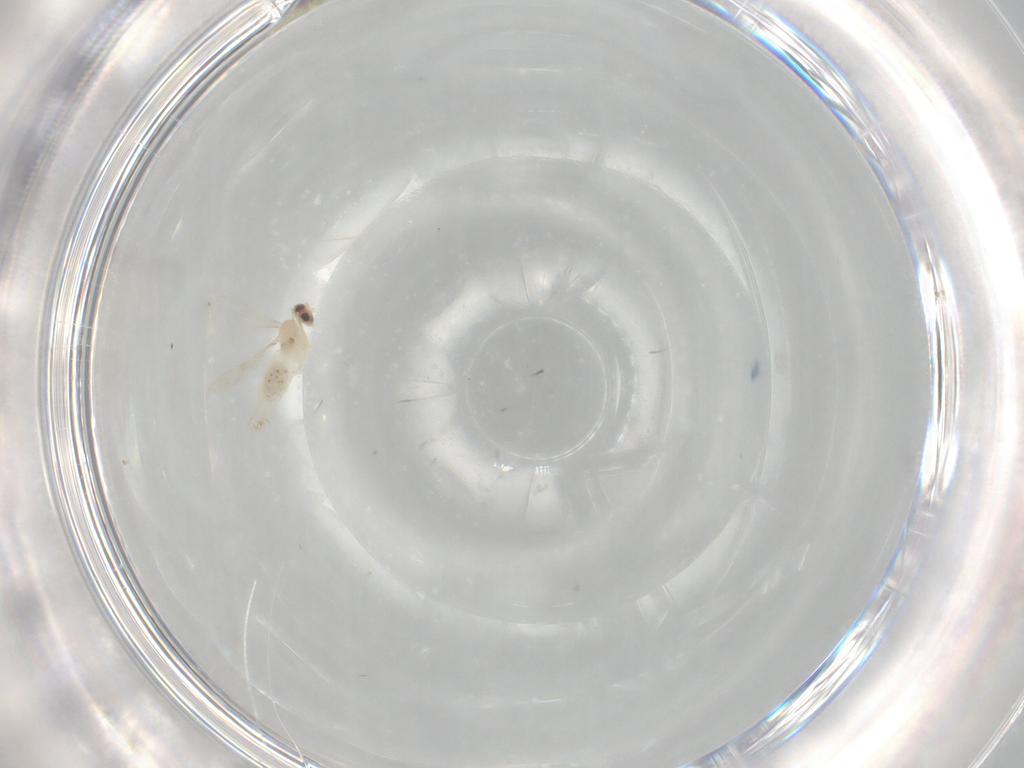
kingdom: Animalia
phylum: Arthropoda
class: Insecta
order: Diptera
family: Cecidomyiidae
